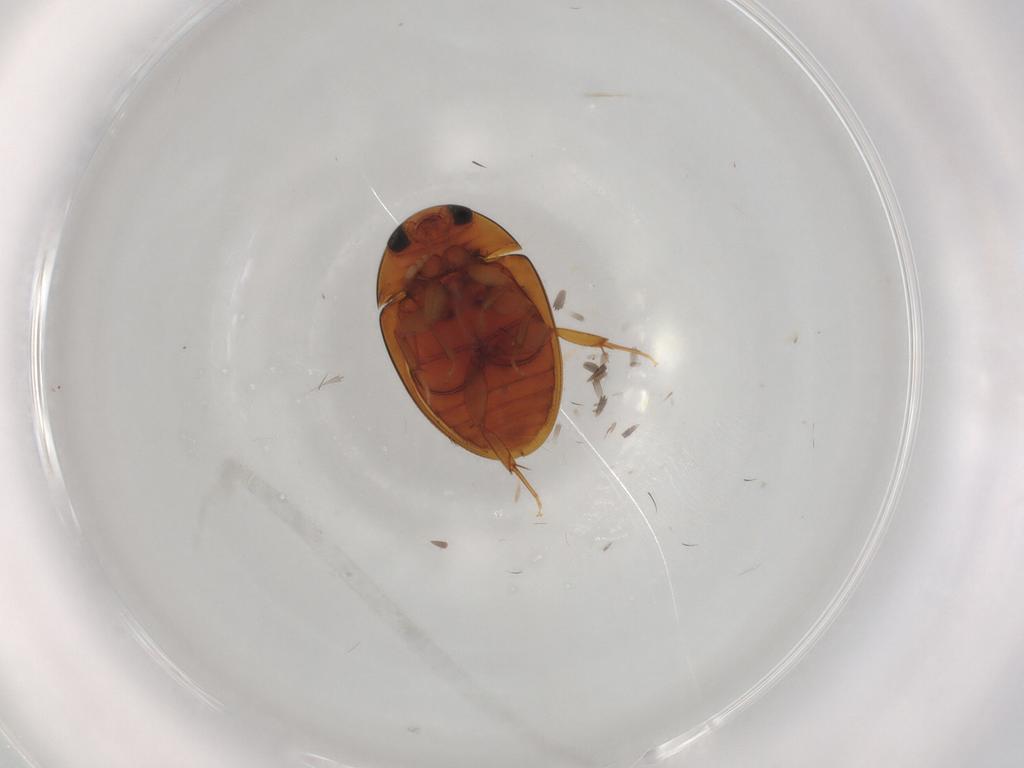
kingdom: Animalia
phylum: Arthropoda
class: Insecta
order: Coleoptera
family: Phalacridae
